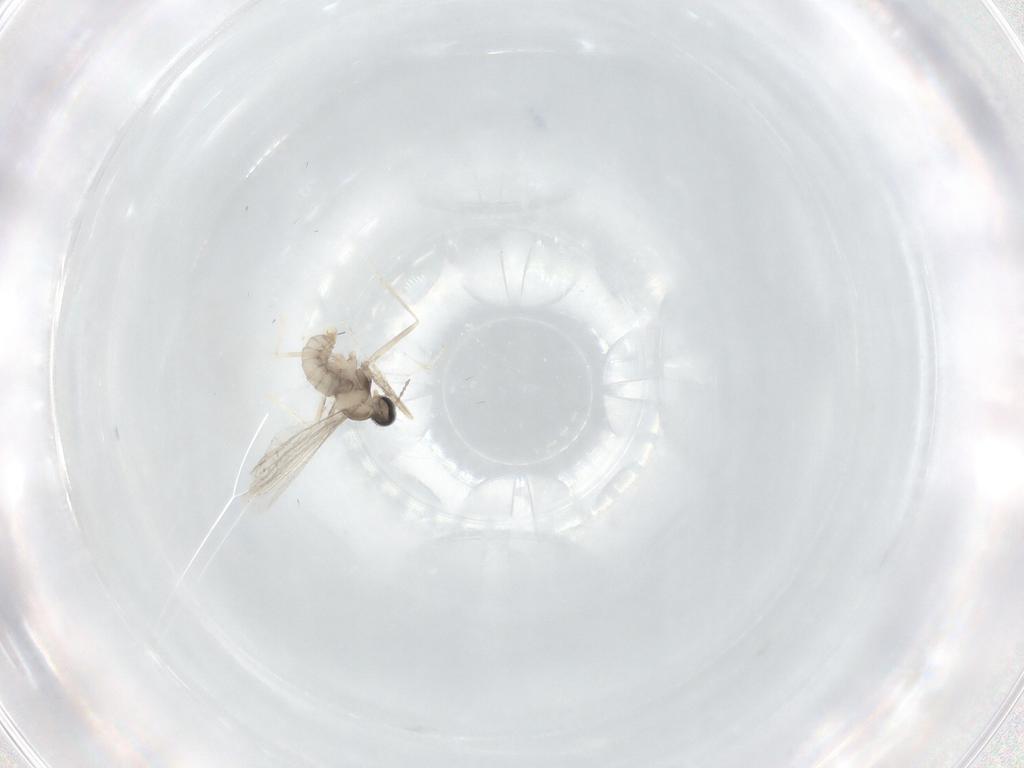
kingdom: Animalia
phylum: Arthropoda
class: Insecta
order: Diptera
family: Cecidomyiidae
